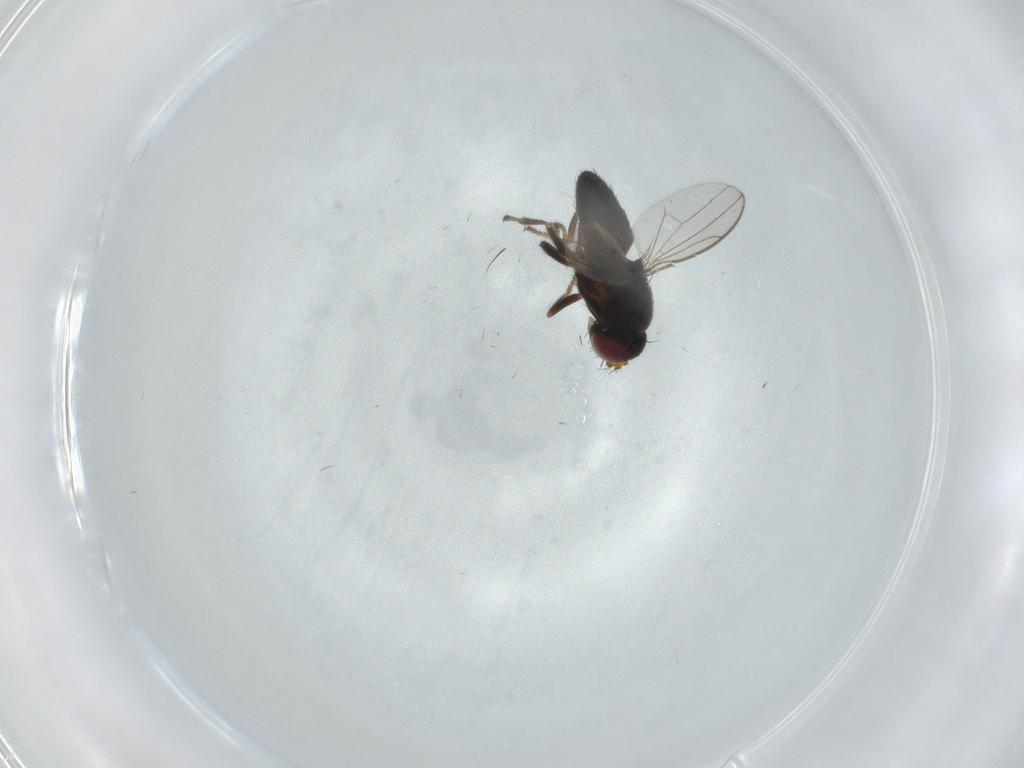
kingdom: Animalia
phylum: Arthropoda
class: Insecta
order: Diptera
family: Ephydridae
